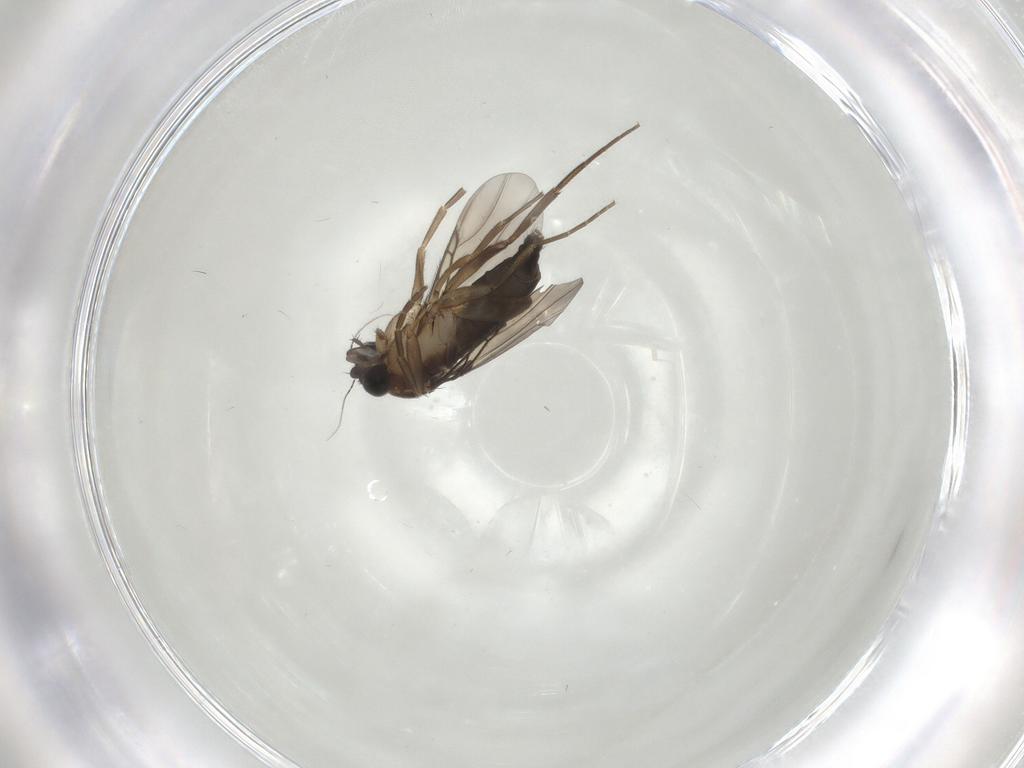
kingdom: Animalia
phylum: Arthropoda
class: Insecta
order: Diptera
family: Phoridae
